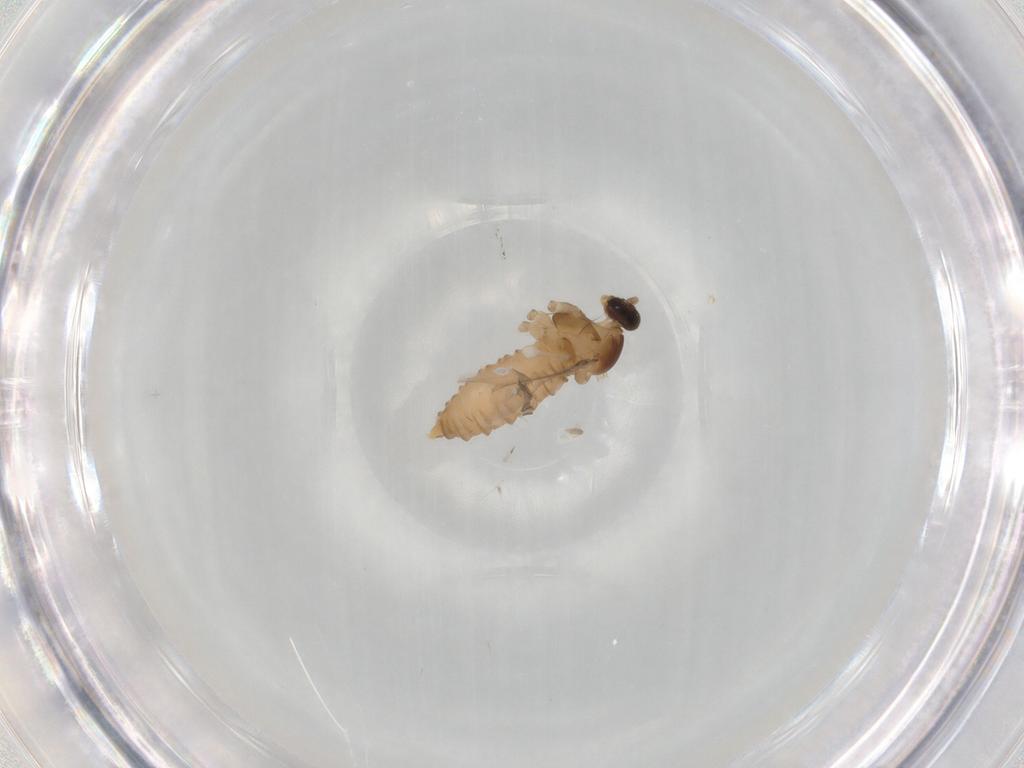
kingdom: Animalia
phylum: Arthropoda
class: Insecta
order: Diptera
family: Cecidomyiidae
